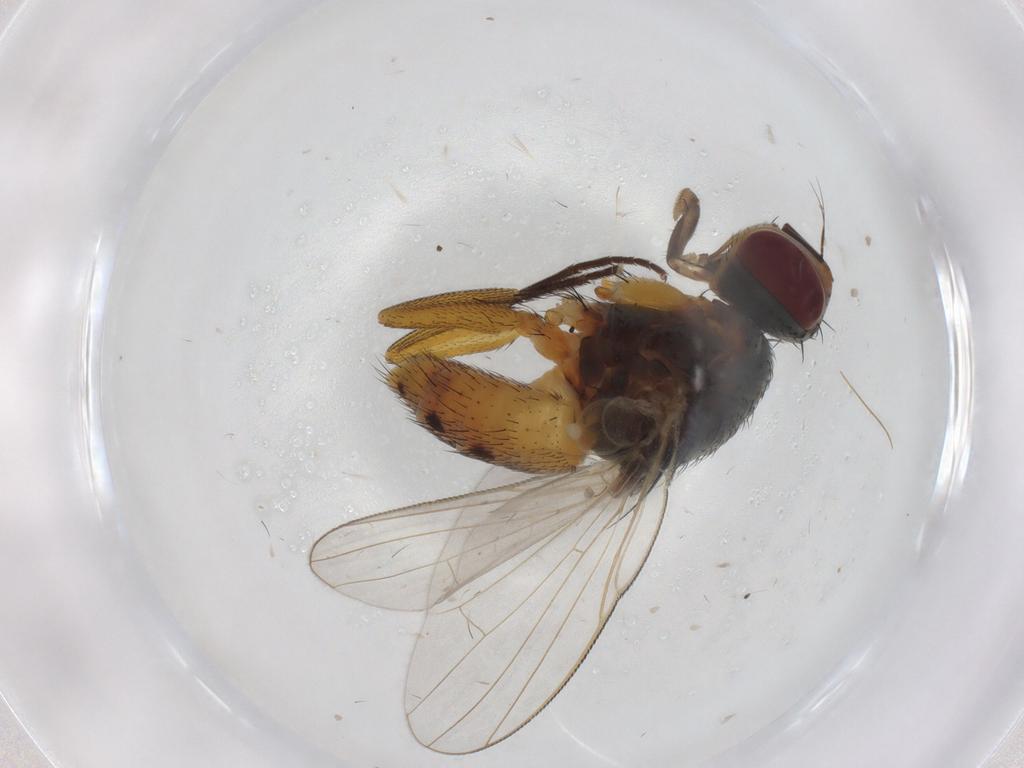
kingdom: Animalia
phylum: Arthropoda
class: Insecta
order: Diptera
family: Muscidae
